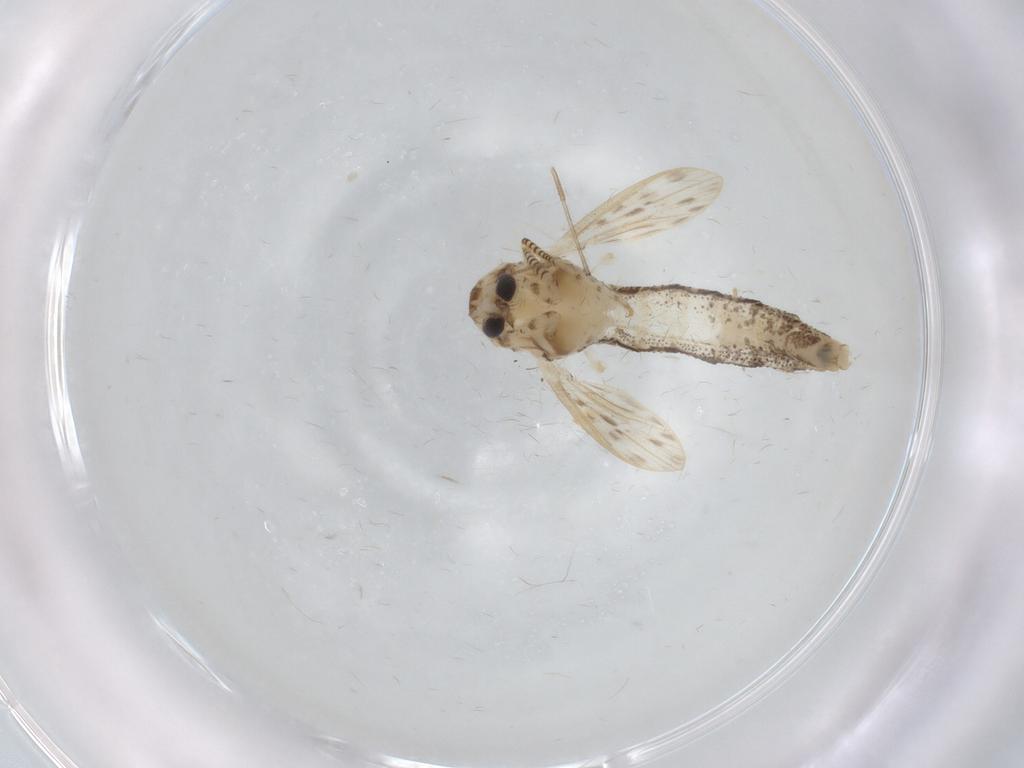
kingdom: Animalia
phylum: Arthropoda
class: Insecta
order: Diptera
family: Chaoboridae
